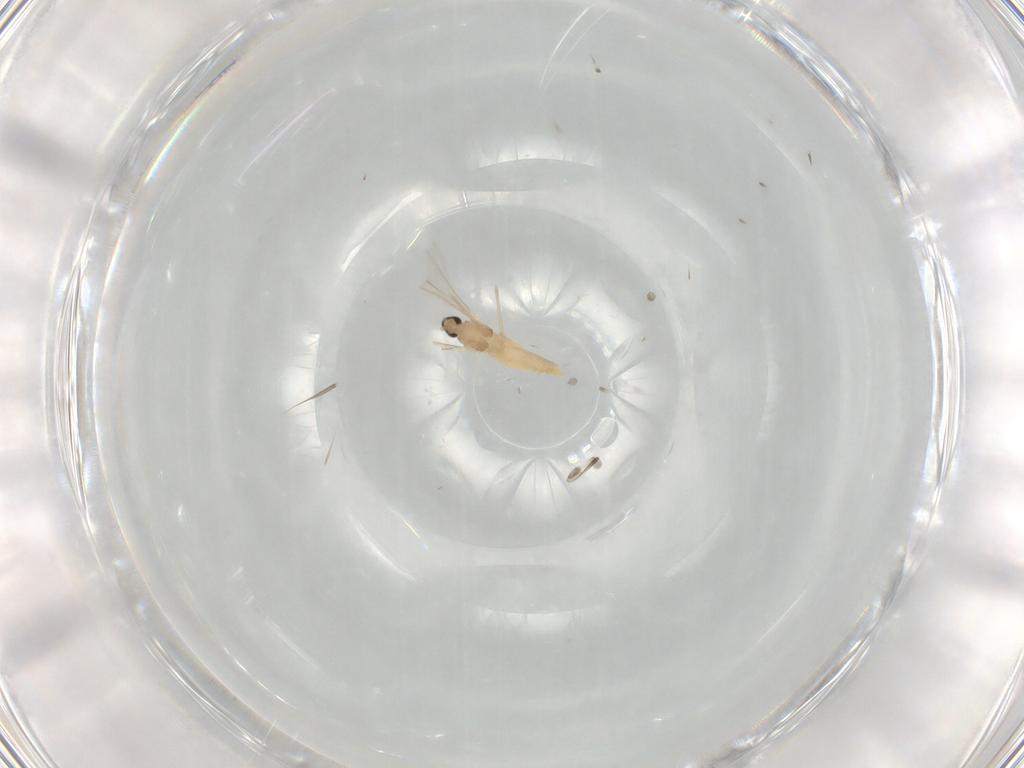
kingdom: Animalia
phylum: Arthropoda
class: Insecta
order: Diptera
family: Cecidomyiidae
